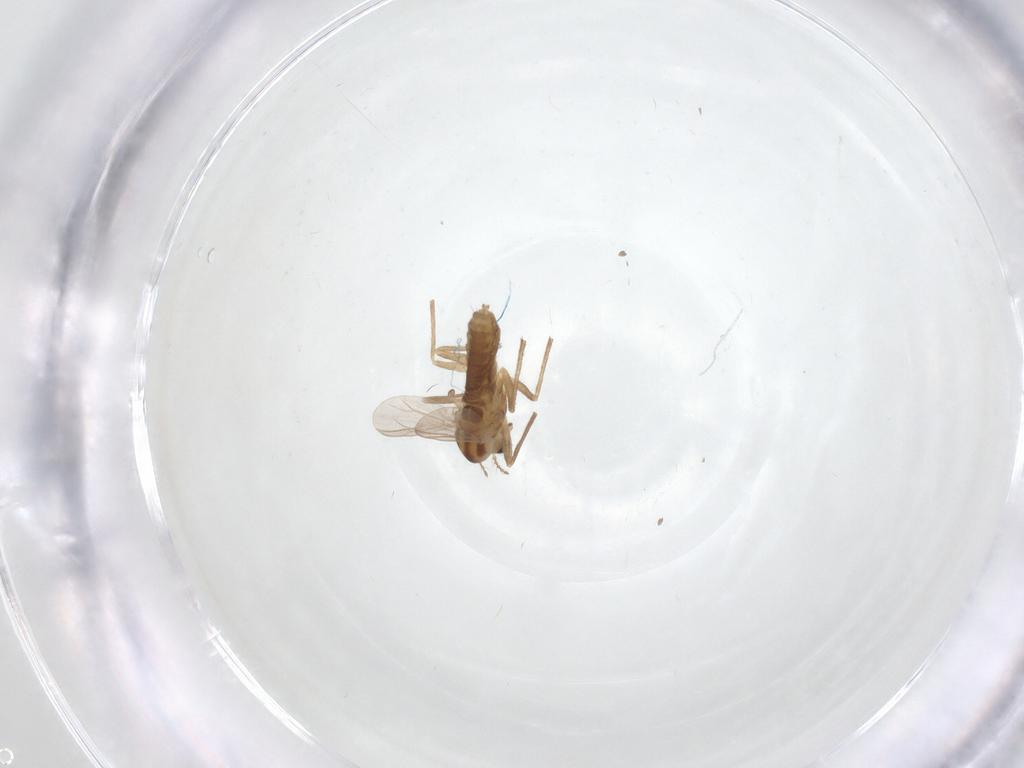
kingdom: Animalia
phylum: Arthropoda
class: Insecta
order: Diptera
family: Chironomidae
